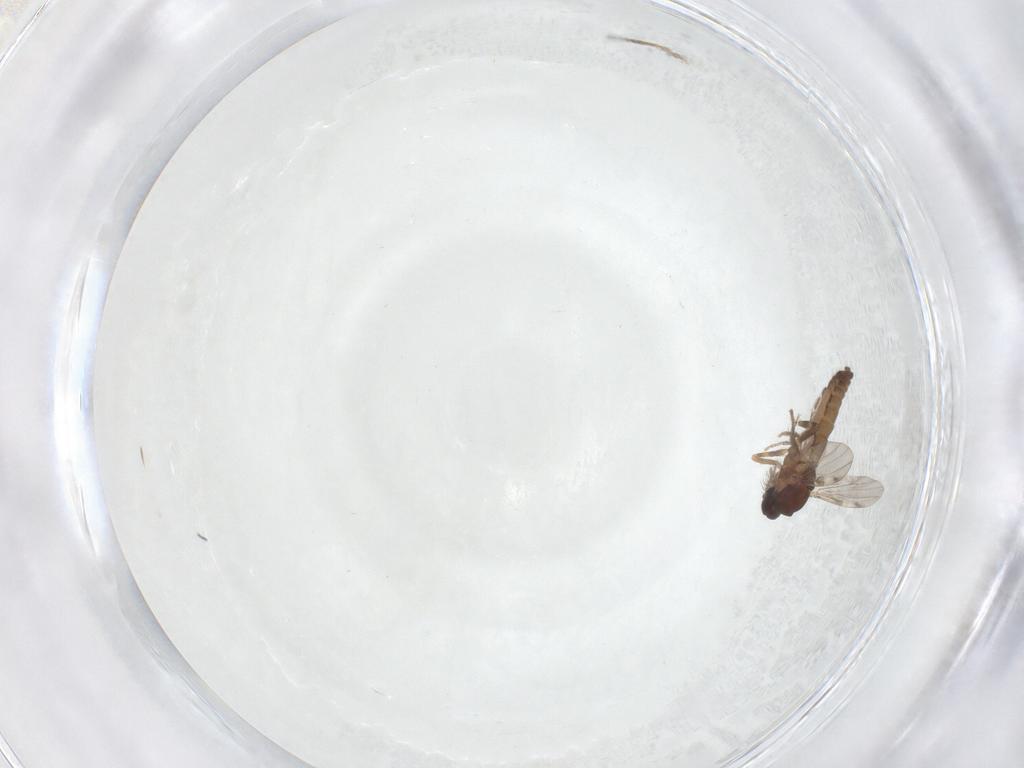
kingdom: Animalia
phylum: Arthropoda
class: Insecta
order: Diptera
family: Ceratopogonidae
